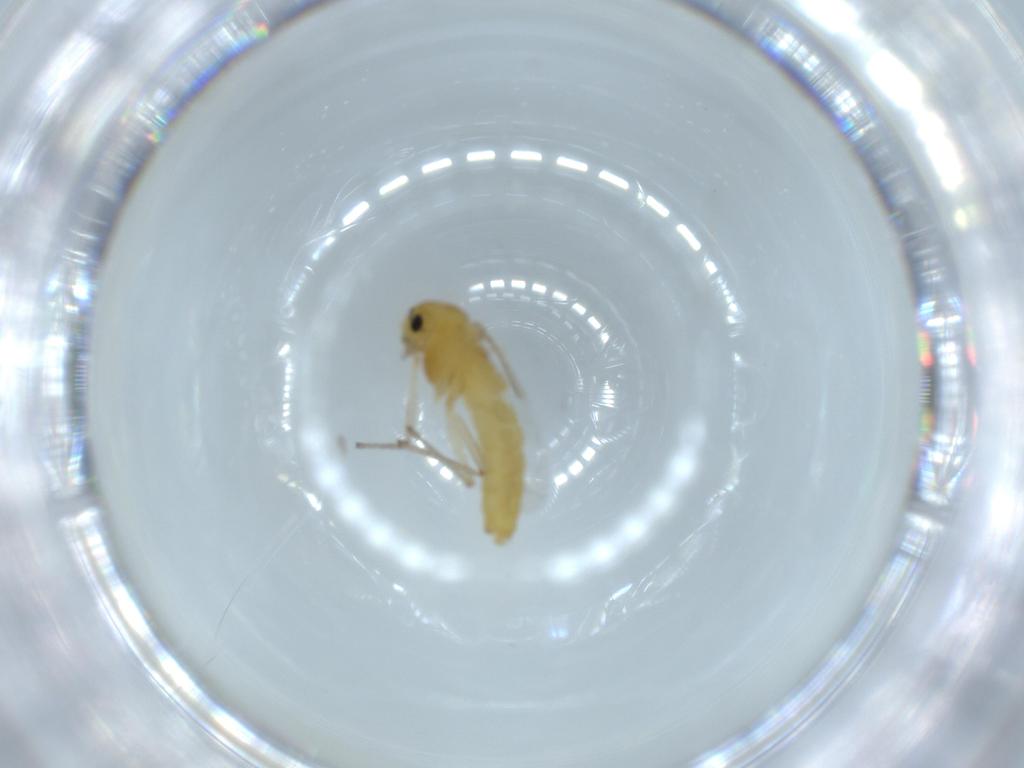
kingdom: Animalia
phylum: Arthropoda
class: Insecta
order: Diptera
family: Chironomidae
